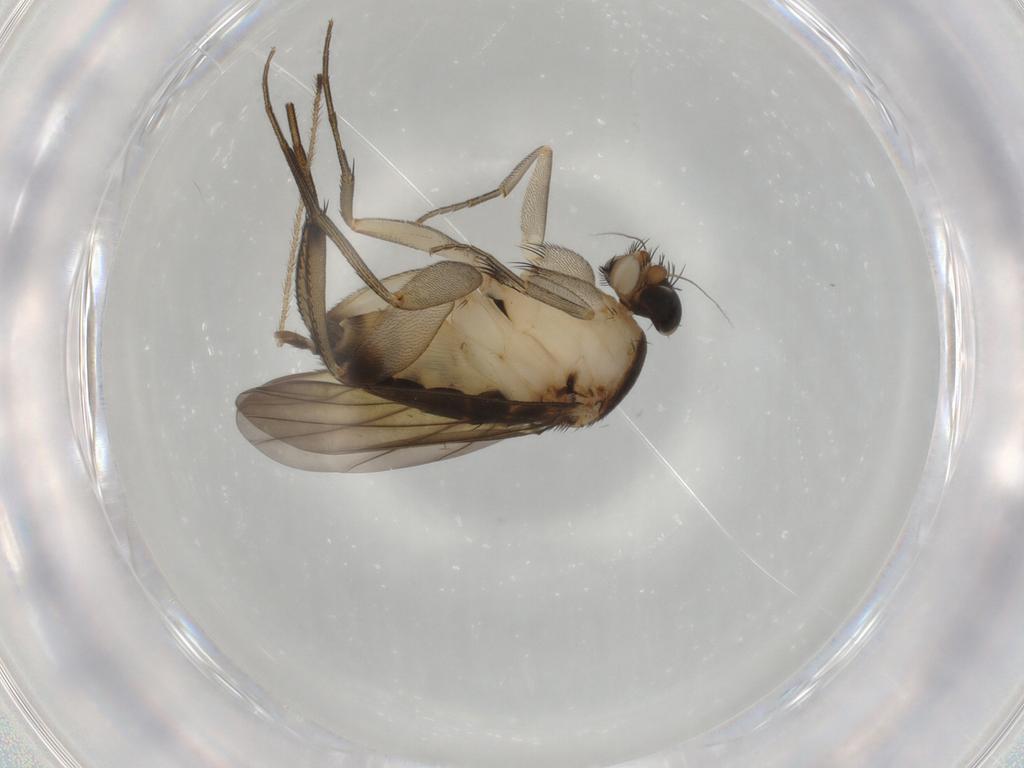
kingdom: Animalia
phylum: Arthropoda
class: Insecta
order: Diptera
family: Phoridae
